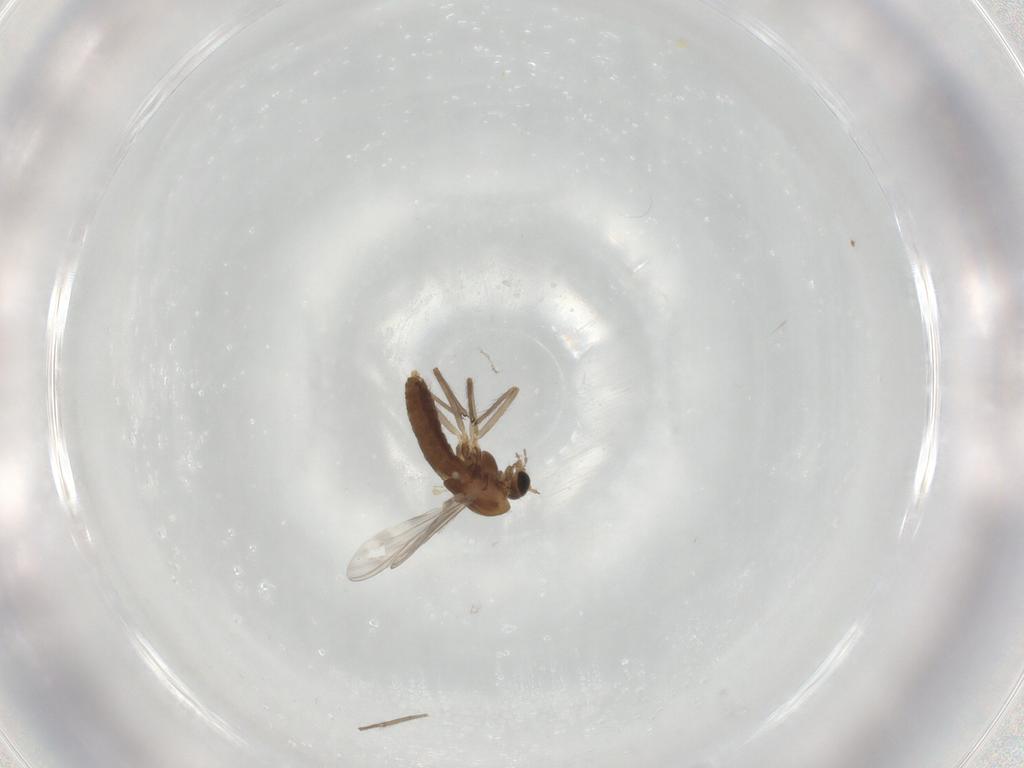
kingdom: Animalia
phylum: Arthropoda
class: Insecta
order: Diptera
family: Chironomidae
